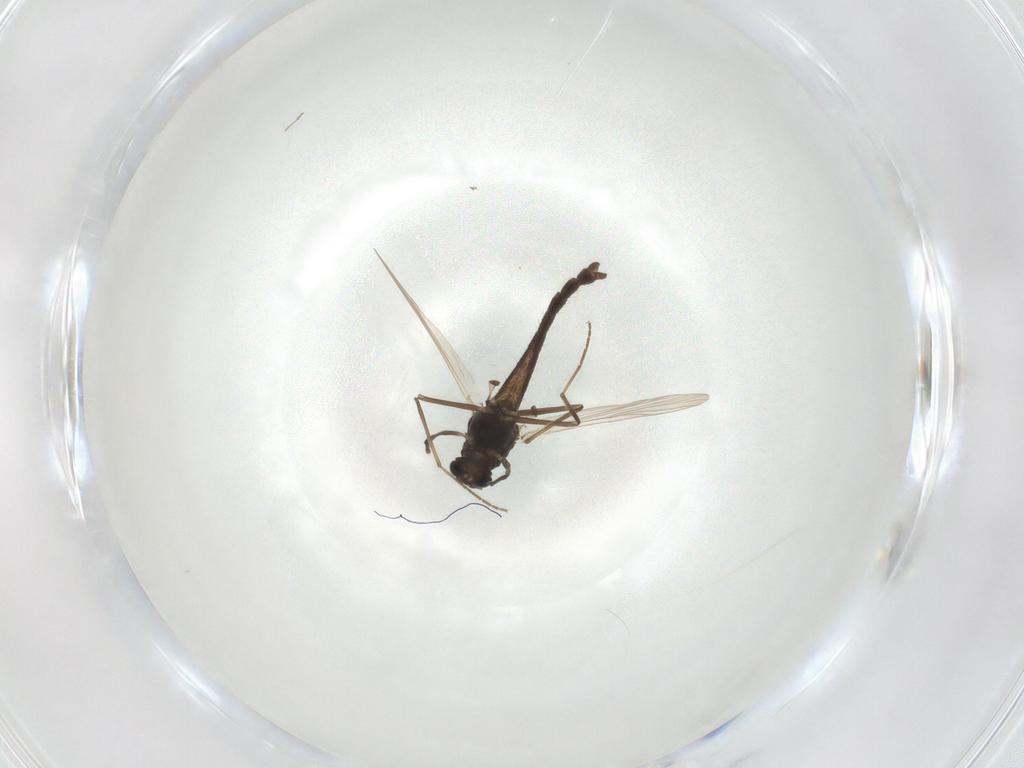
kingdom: Animalia
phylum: Arthropoda
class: Insecta
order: Diptera
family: Chironomidae
